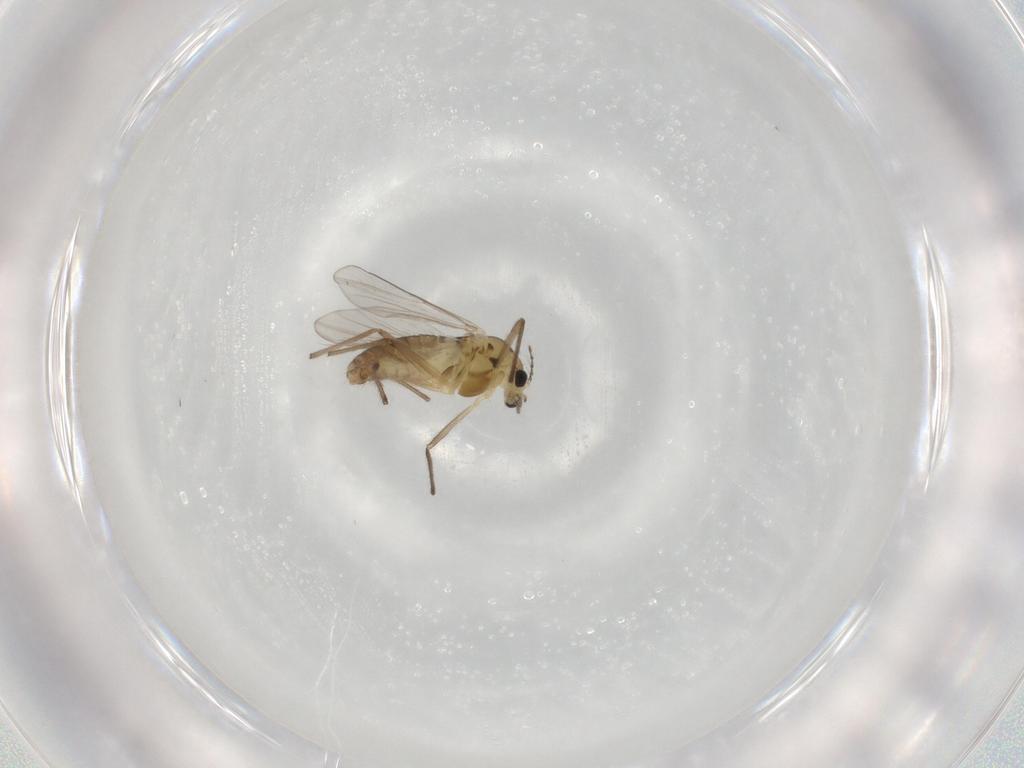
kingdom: Animalia
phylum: Arthropoda
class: Insecta
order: Diptera
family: Chironomidae
